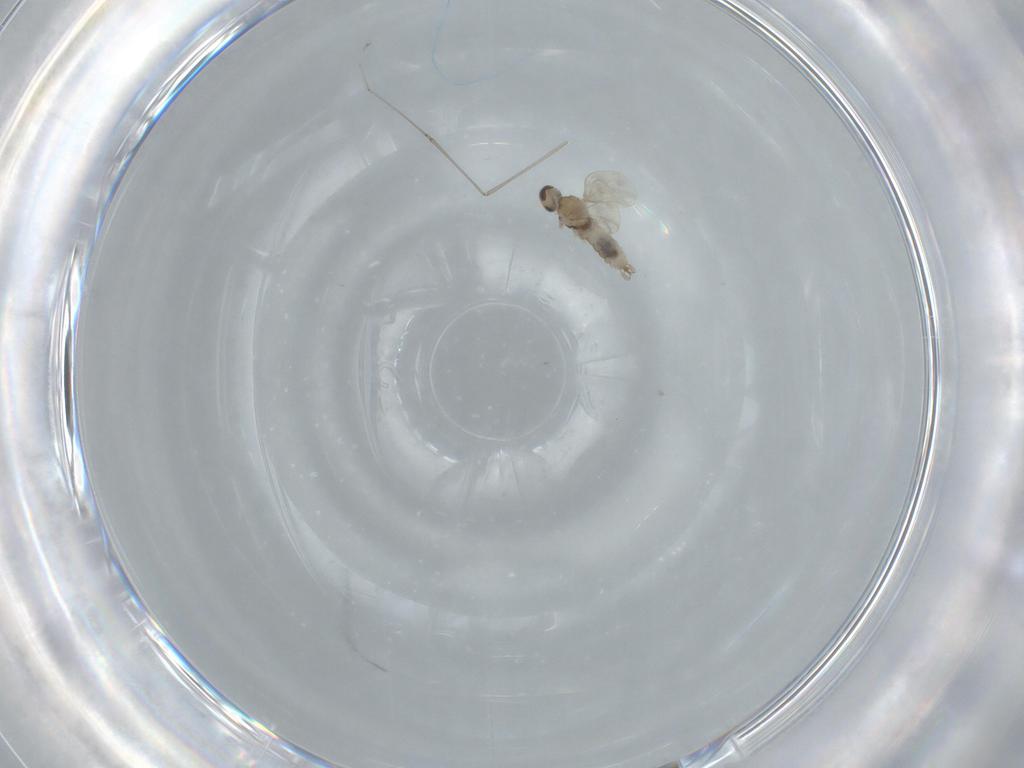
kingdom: Animalia
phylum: Arthropoda
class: Insecta
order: Diptera
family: Cecidomyiidae
